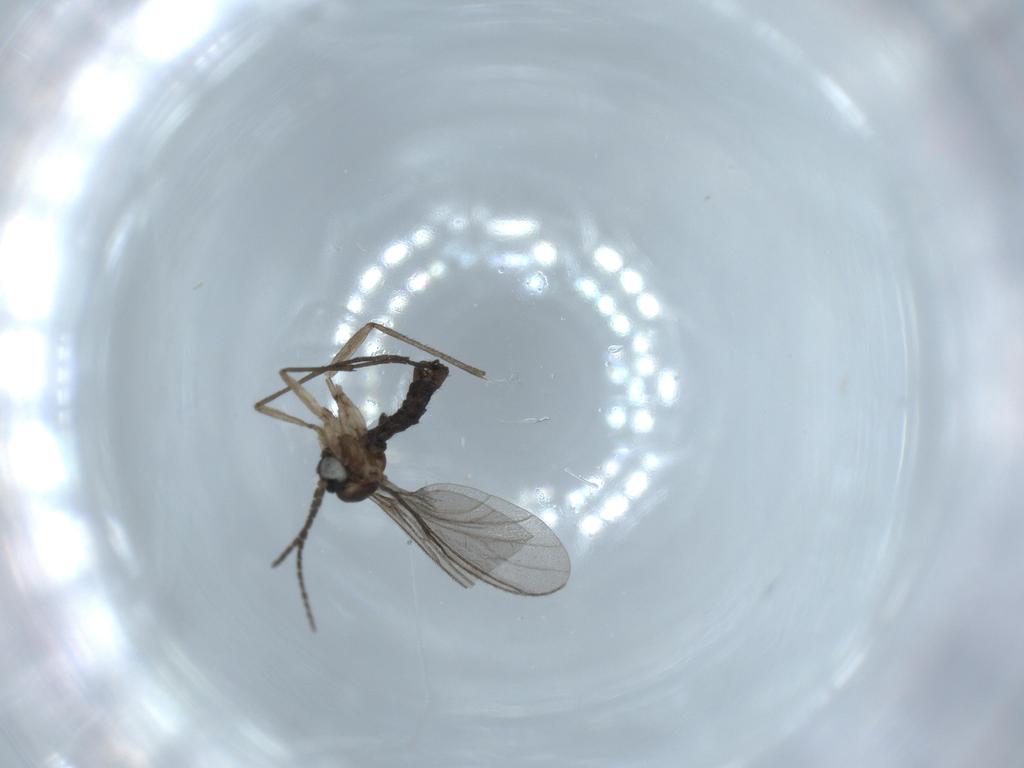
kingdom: Animalia
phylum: Arthropoda
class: Insecta
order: Diptera
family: Sciaridae
